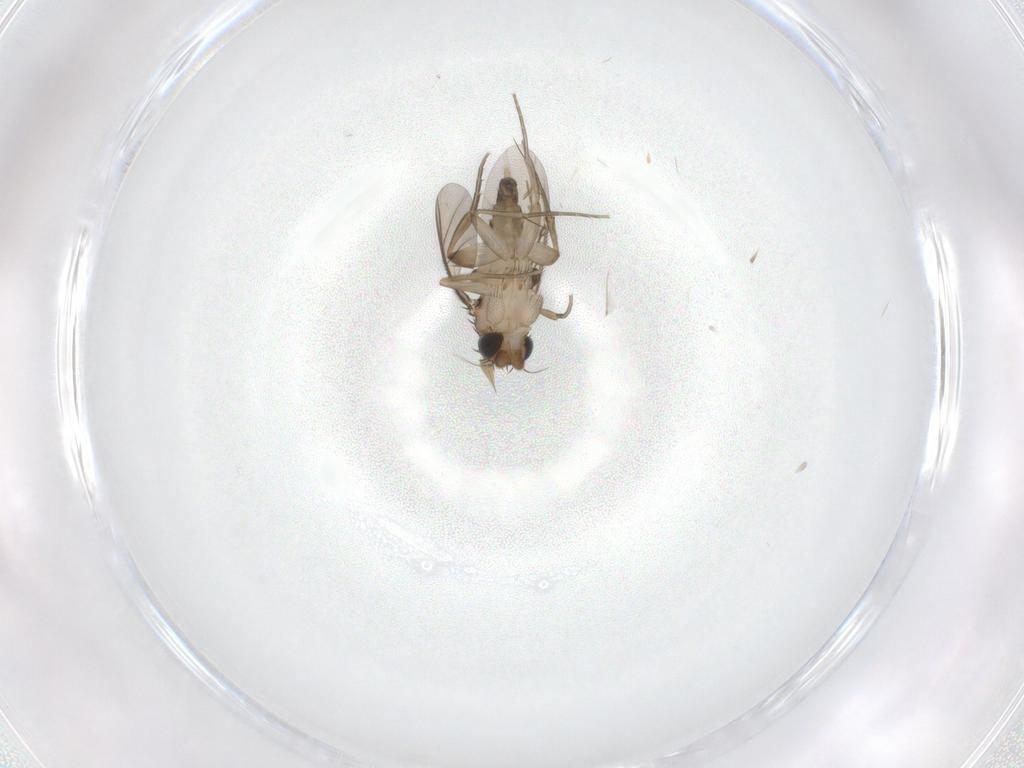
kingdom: Animalia
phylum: Arthropoda
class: Insecta
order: Diptera
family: Phoridae
